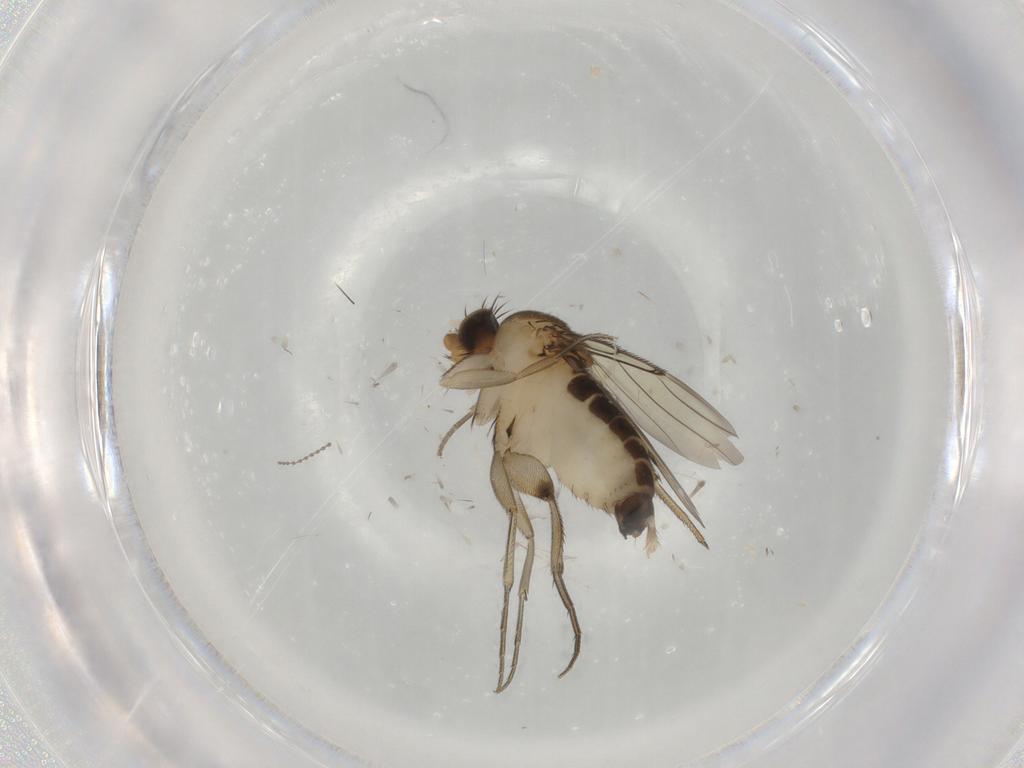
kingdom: Animalia
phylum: Arthropoda
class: Insecta
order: Diptera
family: Phoridae
